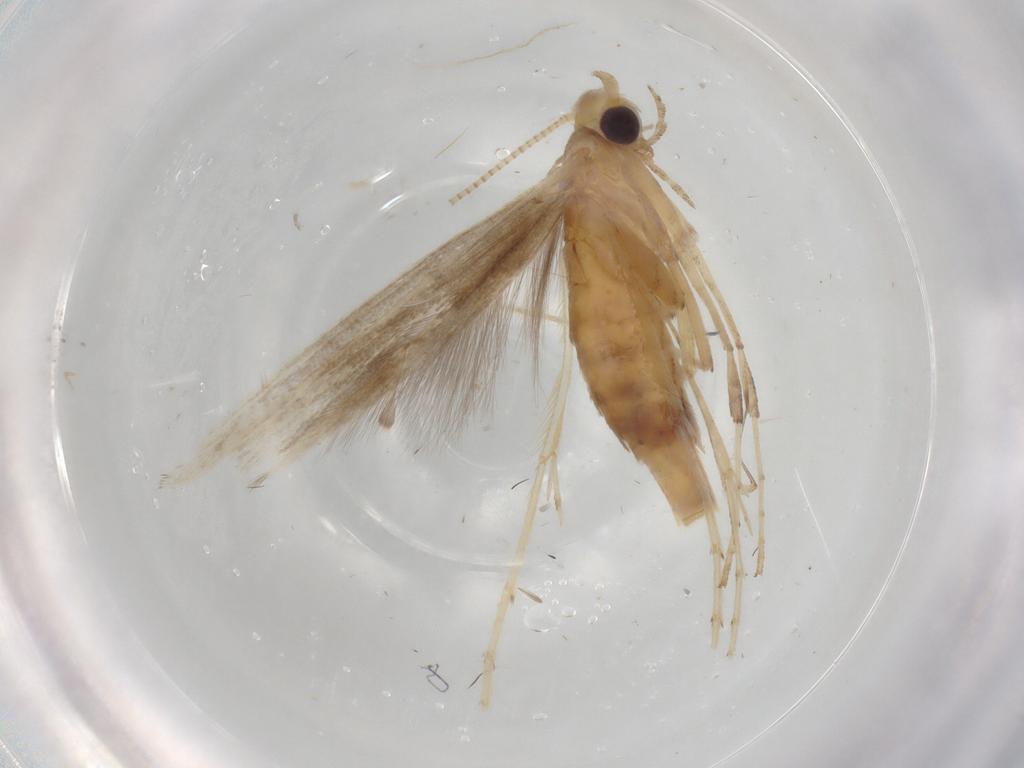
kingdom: Animalia
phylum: Arthropoda
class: Insecta
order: Lepidoptera
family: Gracillariidae
